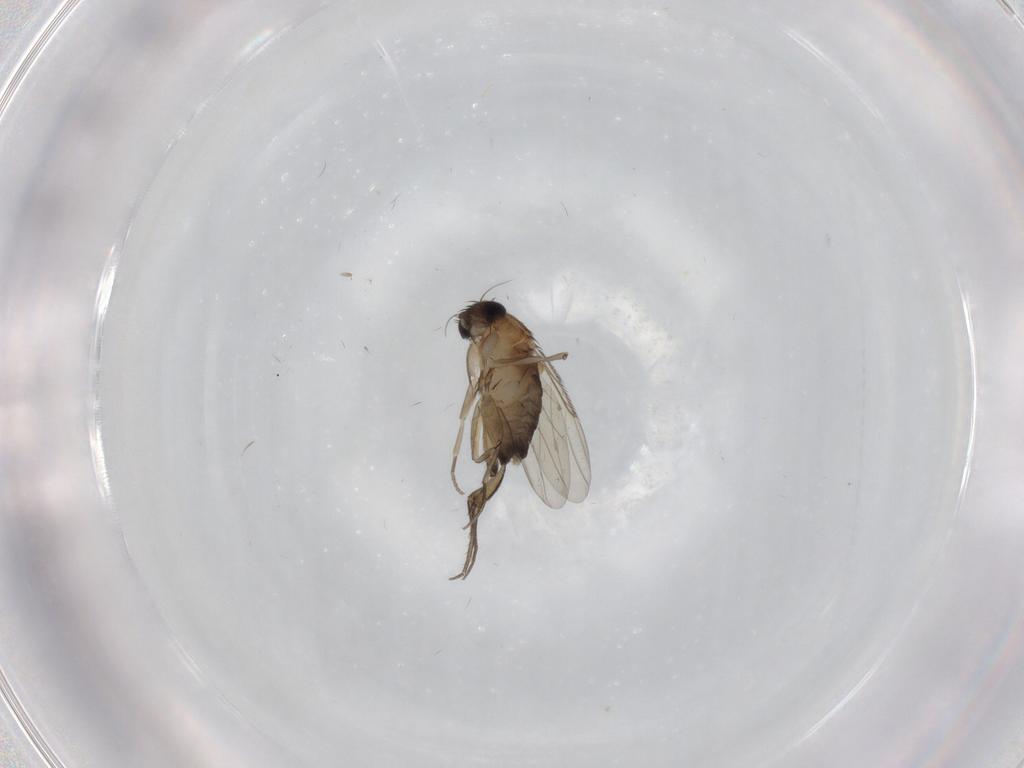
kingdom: Animalia
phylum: Arthropoda
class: Insecta
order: Diptera
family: Phoridae
